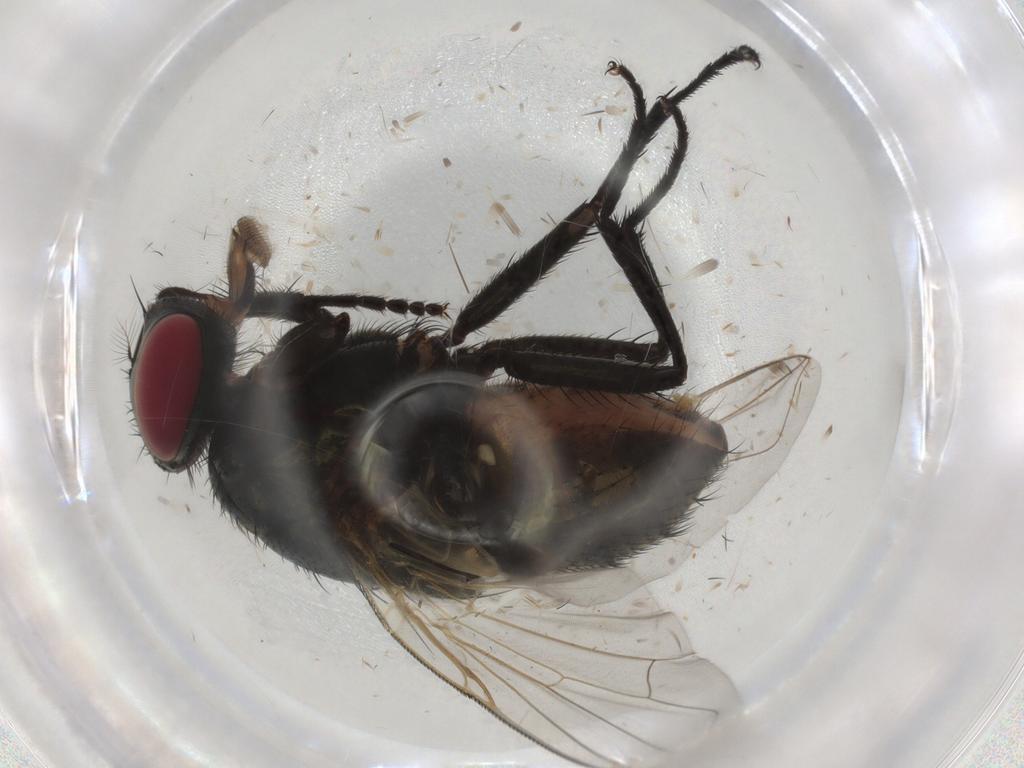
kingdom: Animalia
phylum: Arthropoda
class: Insecta
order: Diptera
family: Muscidae
